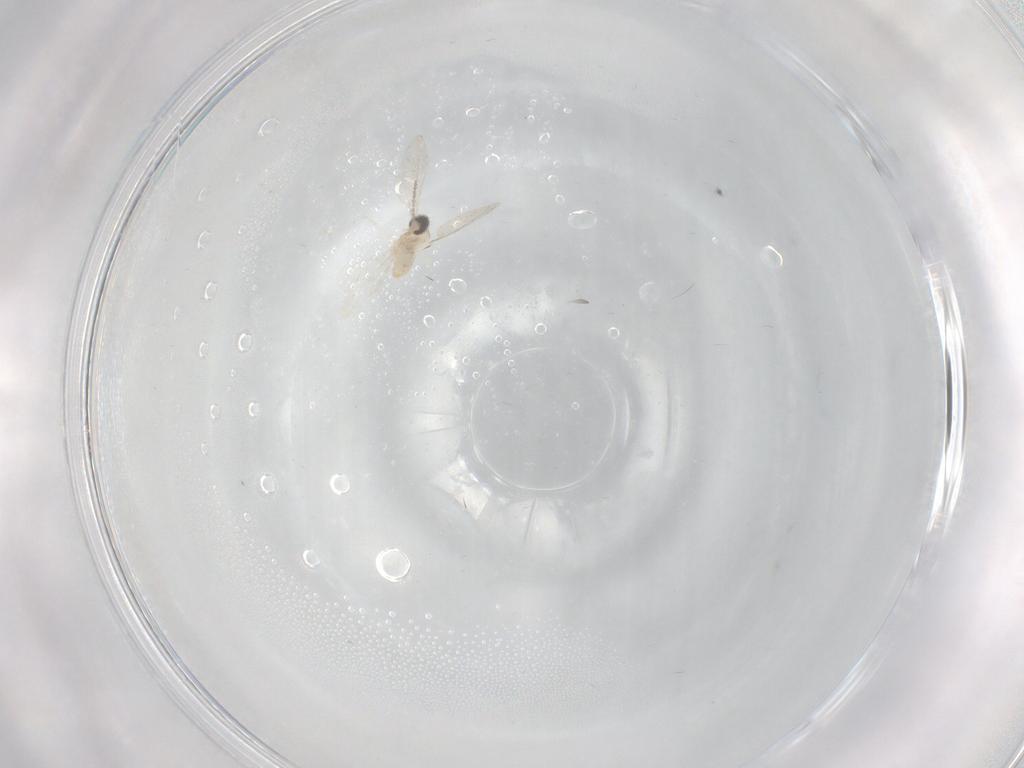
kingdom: Animalia
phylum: Arthropoda
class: Insecta
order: Diptera
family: Cecidomyiidae
